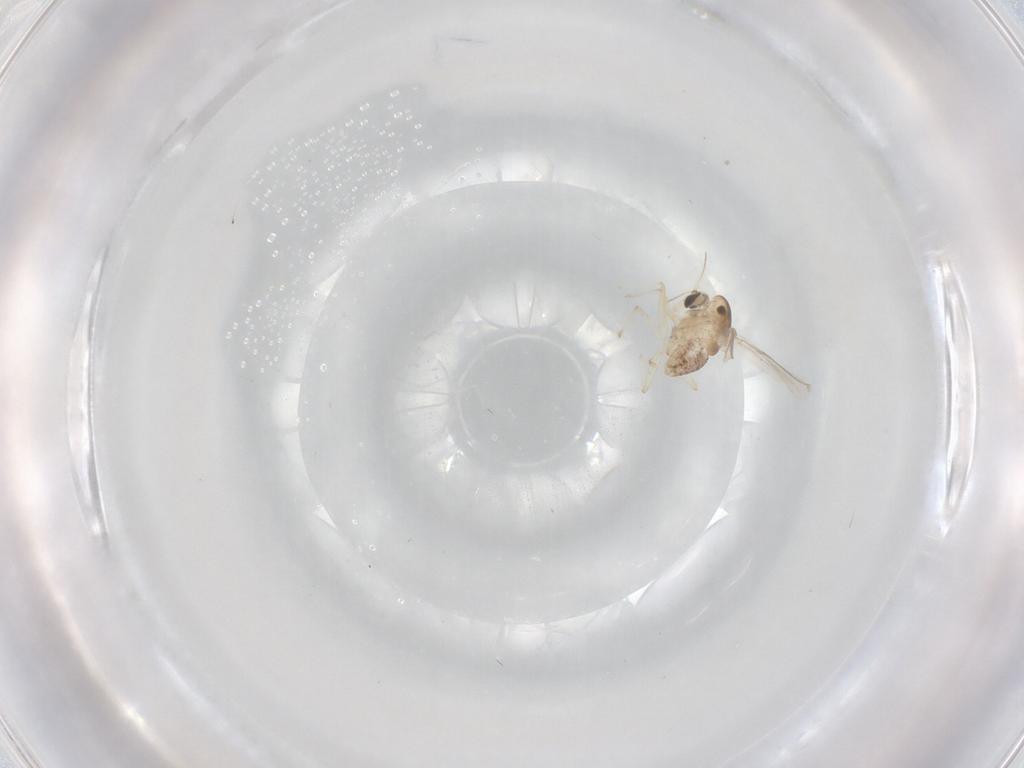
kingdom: Animalia
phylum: Arthropoda
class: Insecta
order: Diptera
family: Chironomidae
